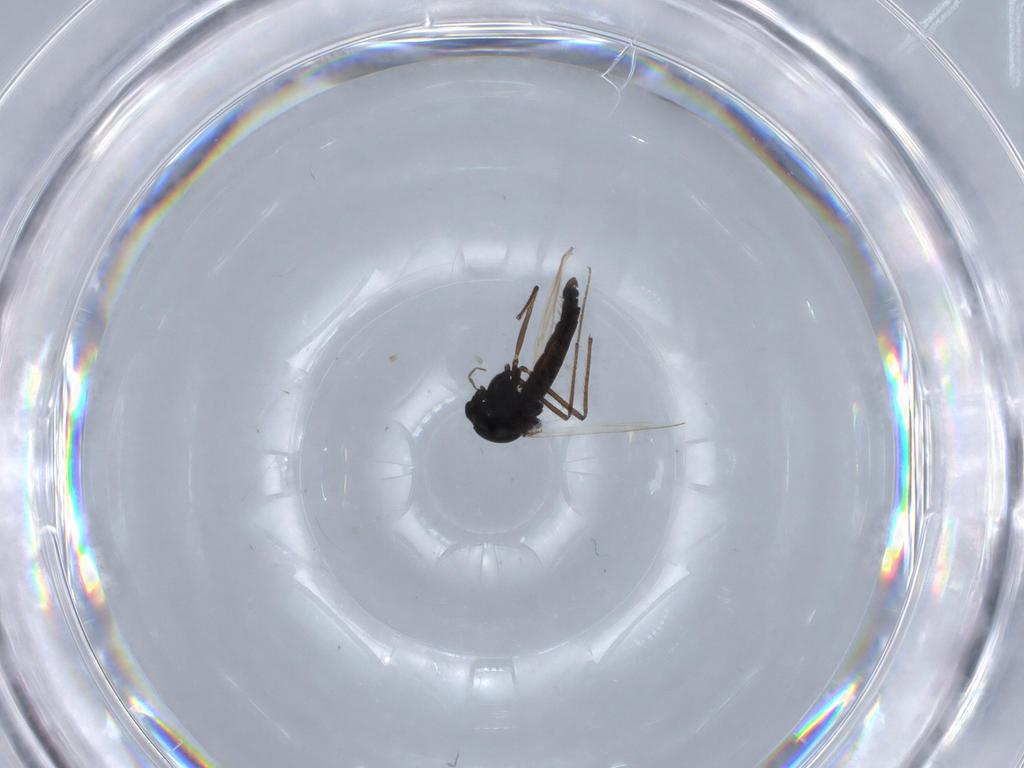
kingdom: Animalia
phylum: Arthropoda
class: Insecta
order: Diptera
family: Chironomidae
